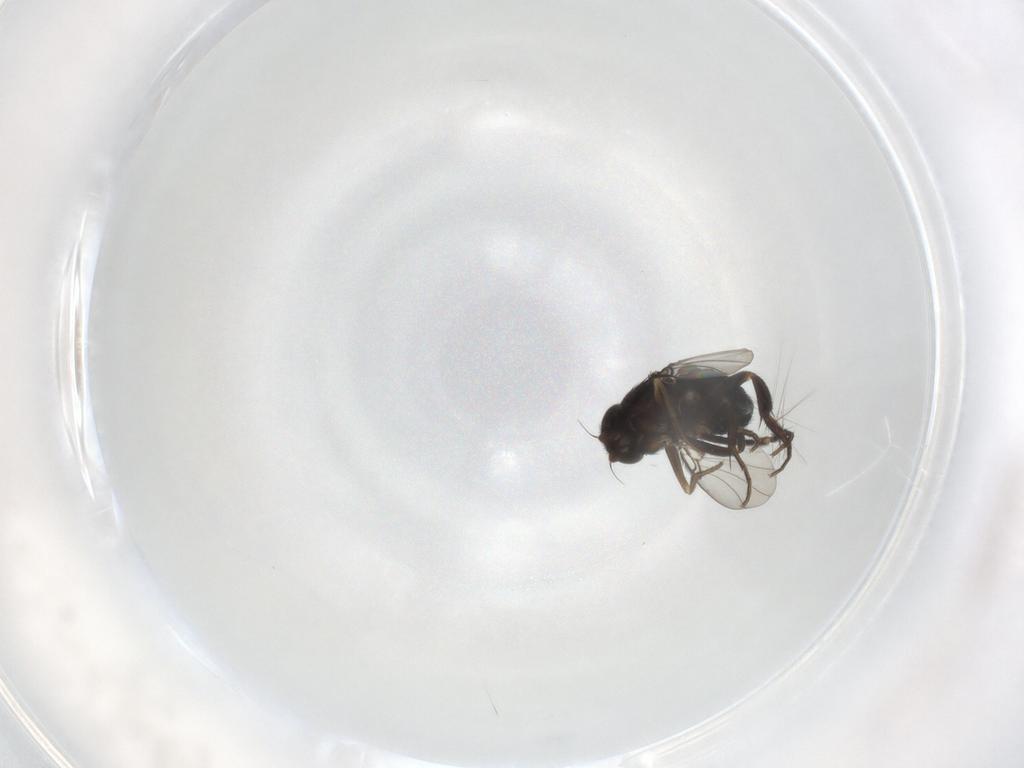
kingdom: Animalia
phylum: Arthropoda
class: Insecta
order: Diptera
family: Phoridae
